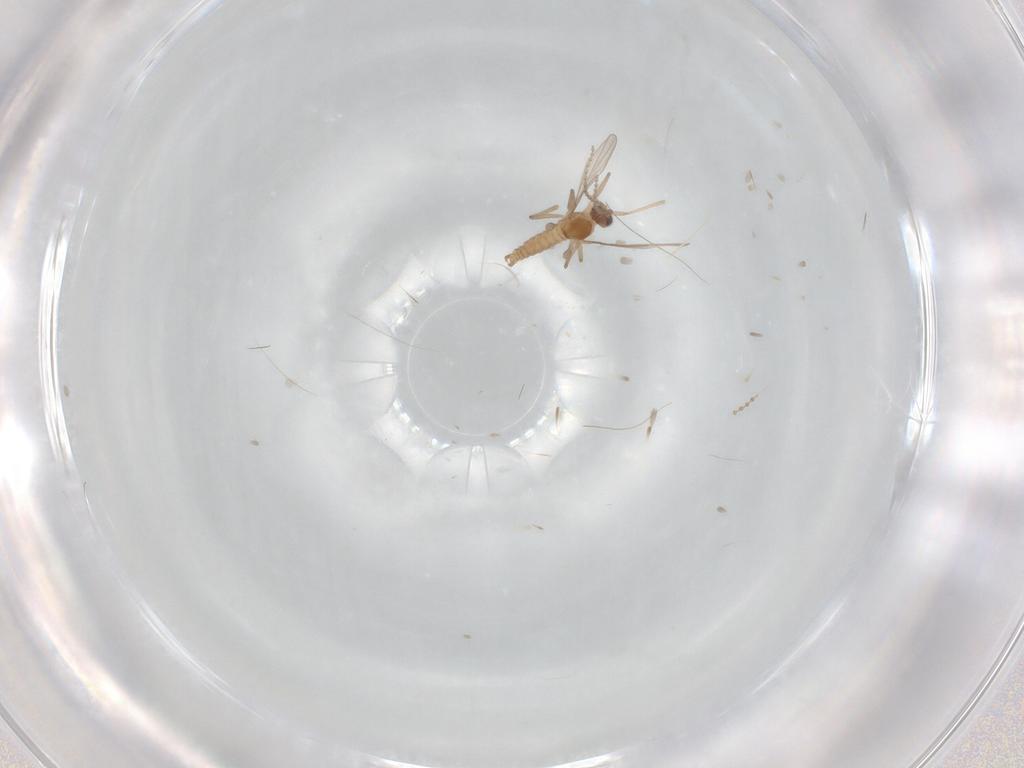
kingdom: Animalia
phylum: Arthropoda
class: Insecta
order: Diptera
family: Cecidomyiidae
